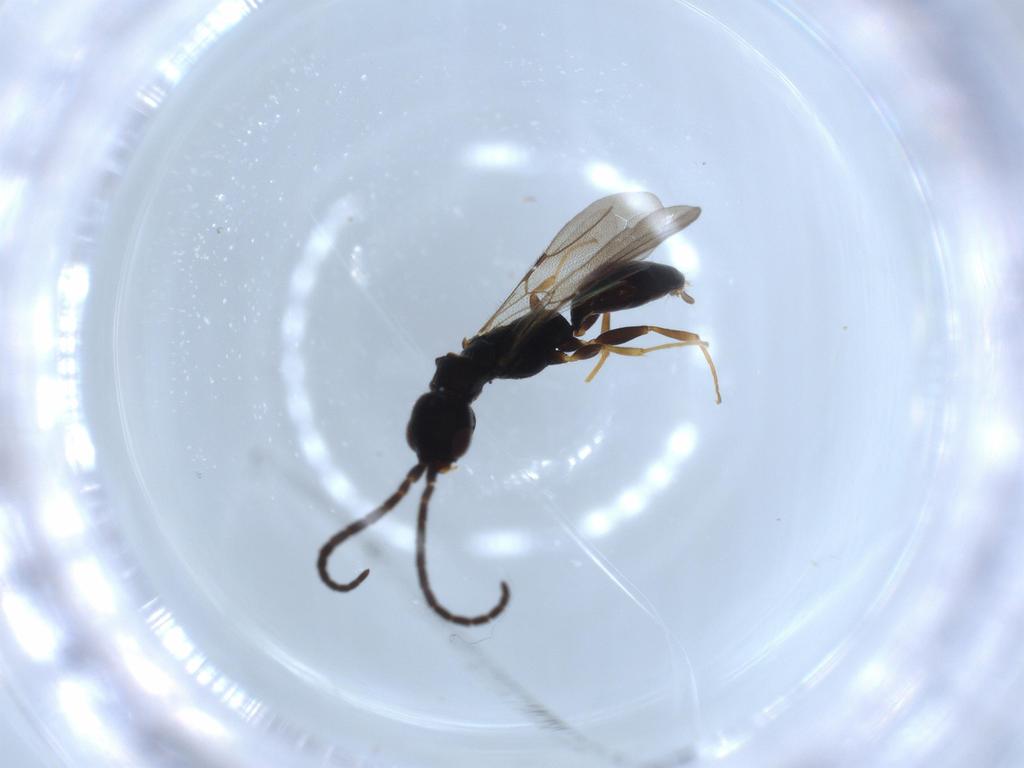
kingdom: Animalia
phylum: Arthropoda
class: Insecta
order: Hymenoptera
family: Bethylidae
